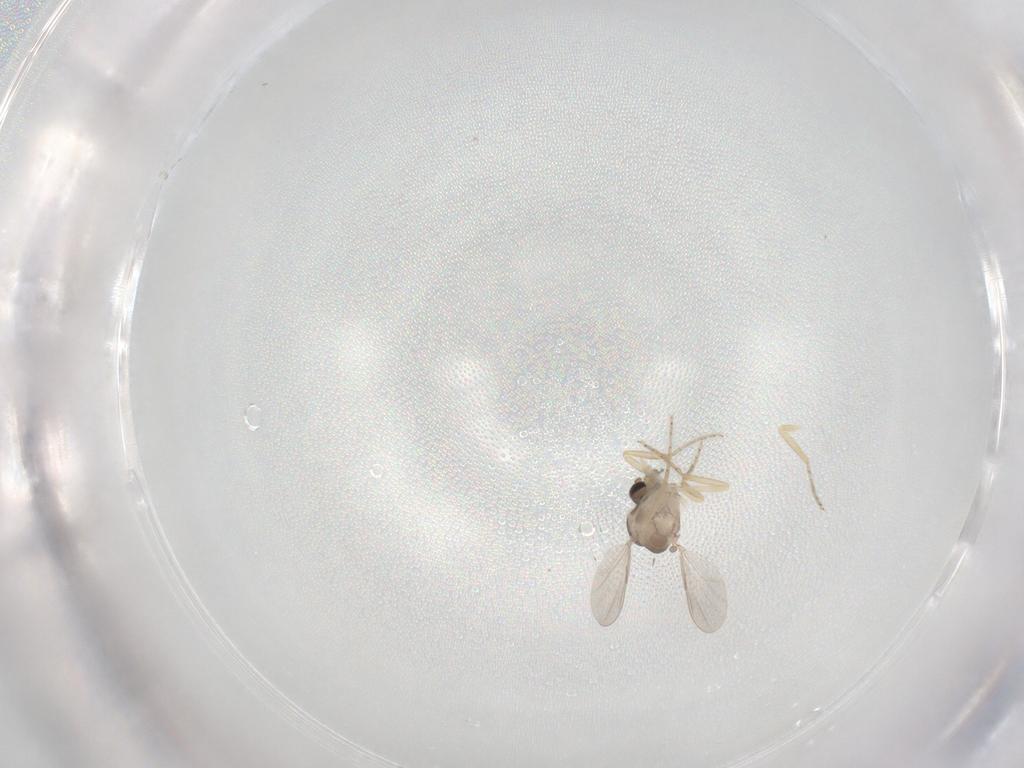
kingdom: Animalia
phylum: Arthropoda
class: Insecta
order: Diptera
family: Ceratopogonidae
